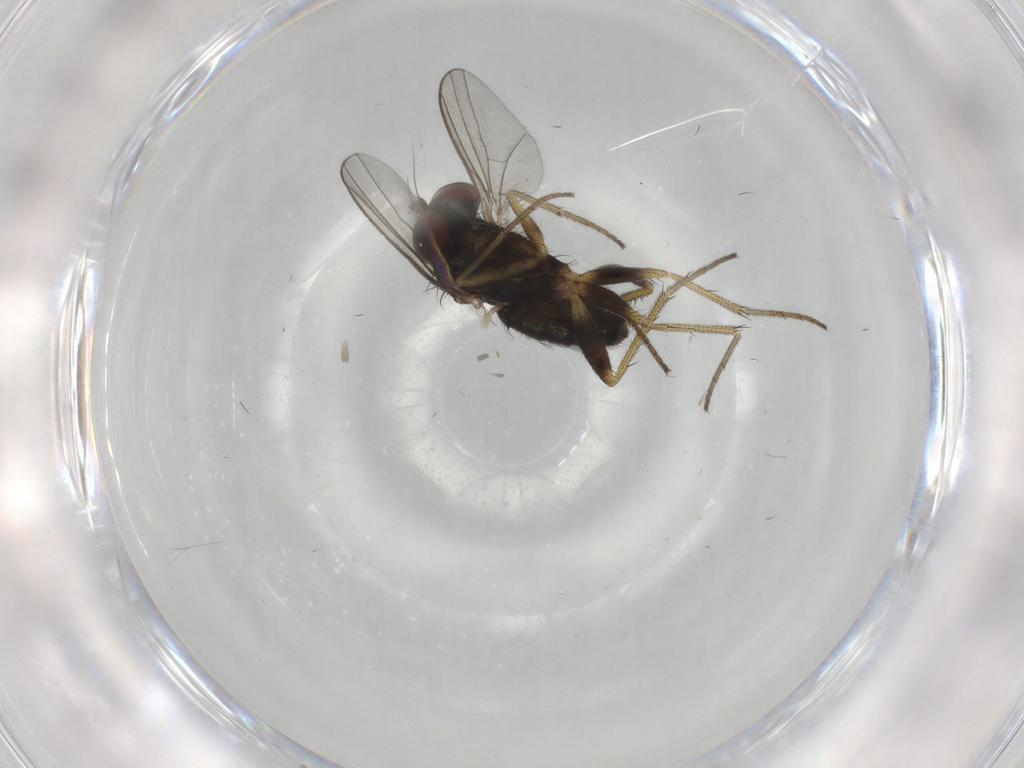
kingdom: Animalia
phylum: Arthropoda
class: Insecta
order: Diptera
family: Dolichopodidae
